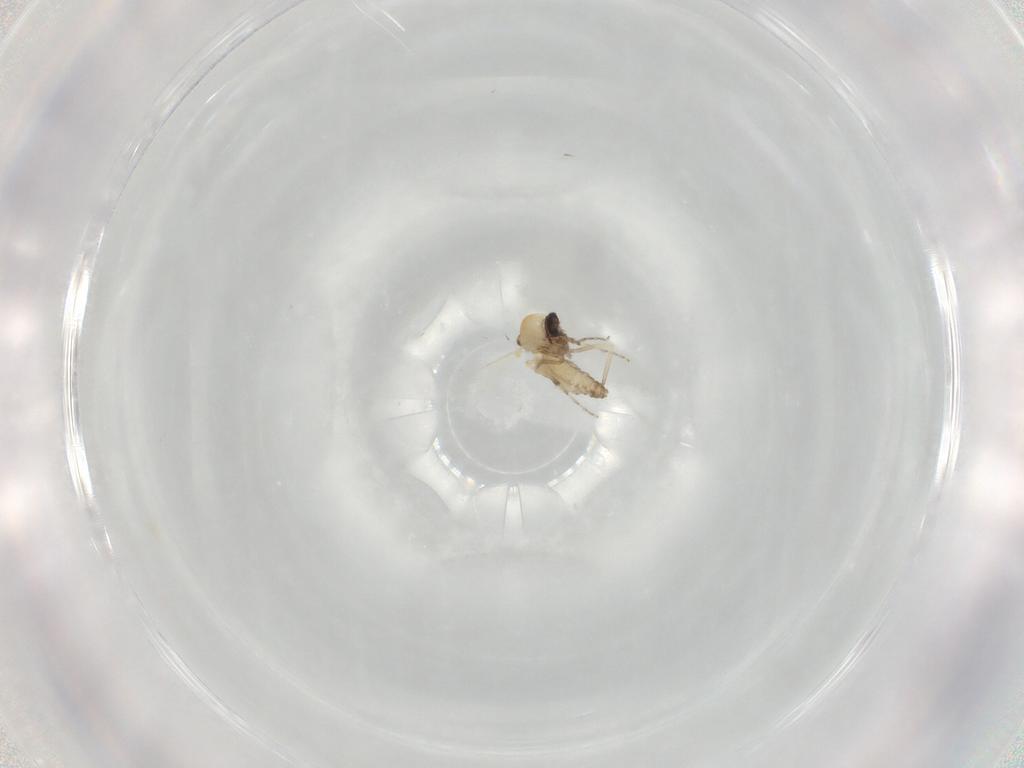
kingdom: Animalia
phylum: Arthropoda
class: Insecta
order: Diptera
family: Ceratopogonidae
